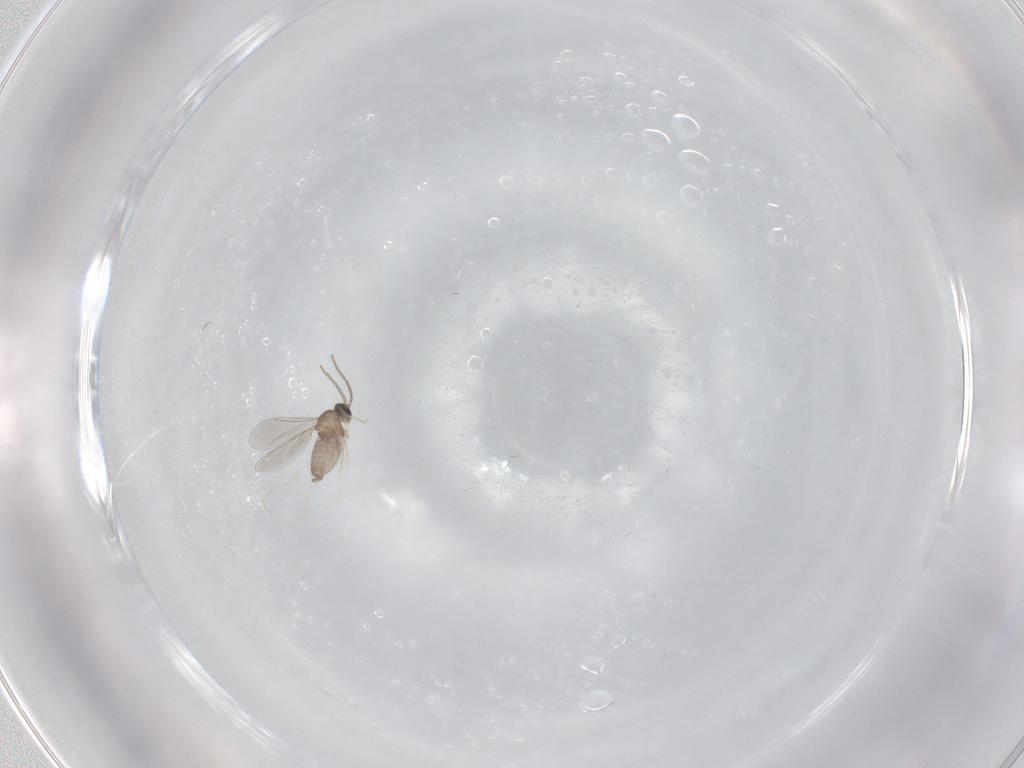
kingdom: Animalia
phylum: Arthropoda
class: Insecta
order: Diptera
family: Cecidomyiidae
